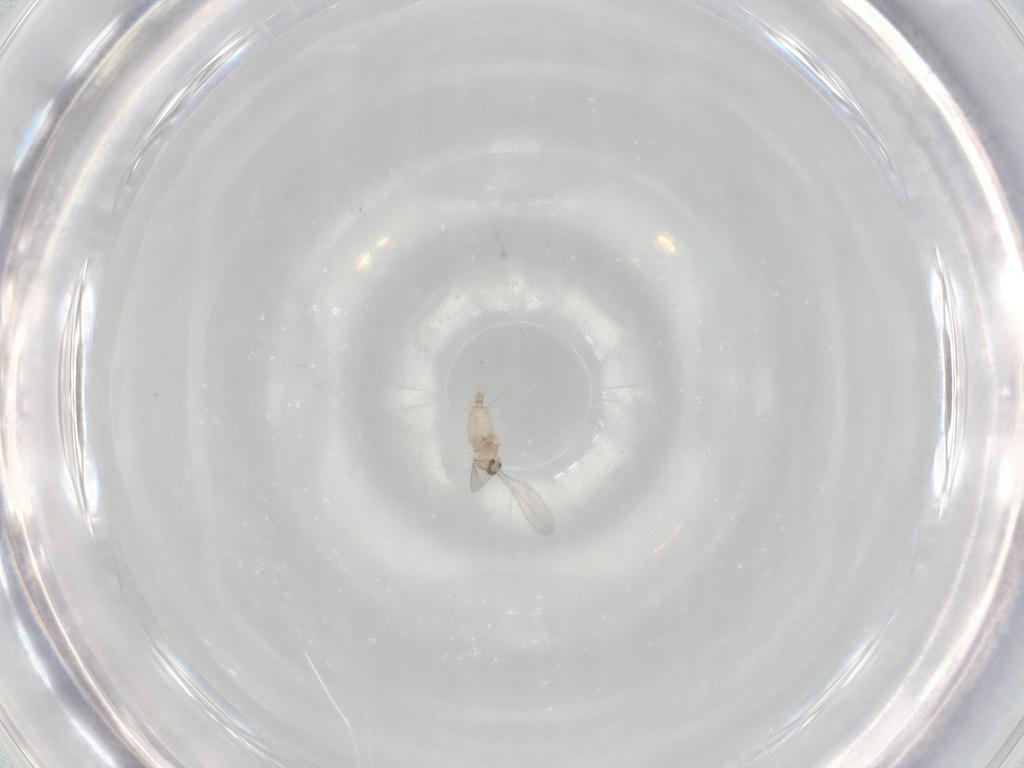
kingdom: Animalia
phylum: Arthropoda
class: Insecta
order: Diptera
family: Cecidomyiidae
